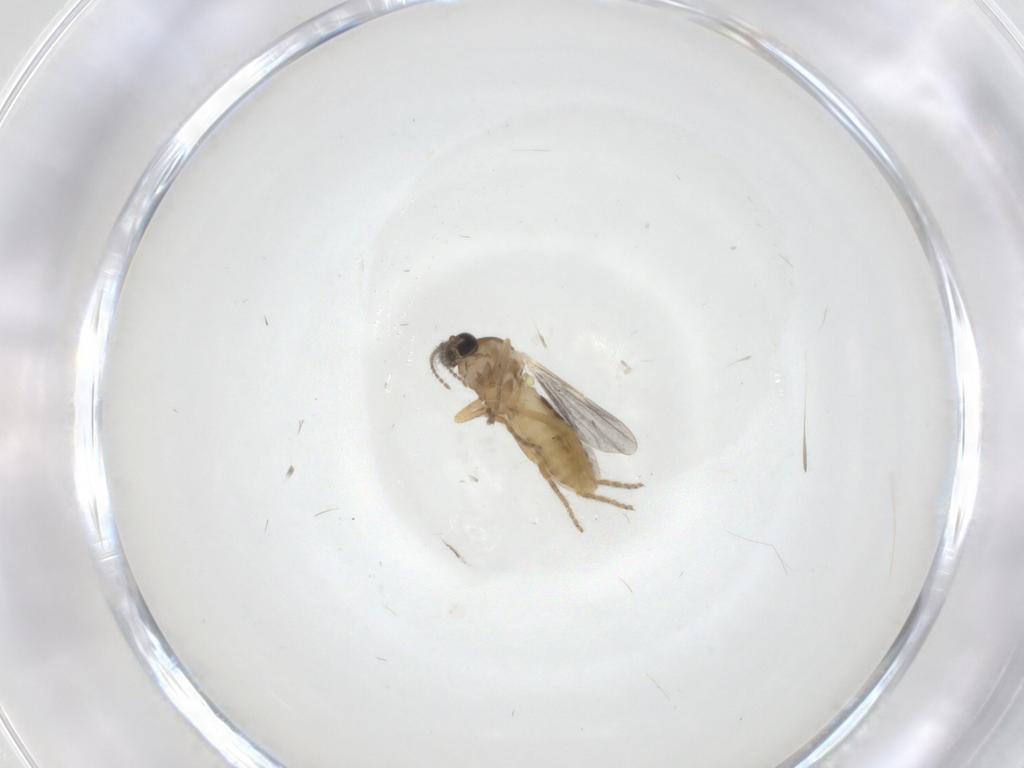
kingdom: Animalia
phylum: Arthropoda
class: Insecta
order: Diptera
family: Ceratopogonidae
